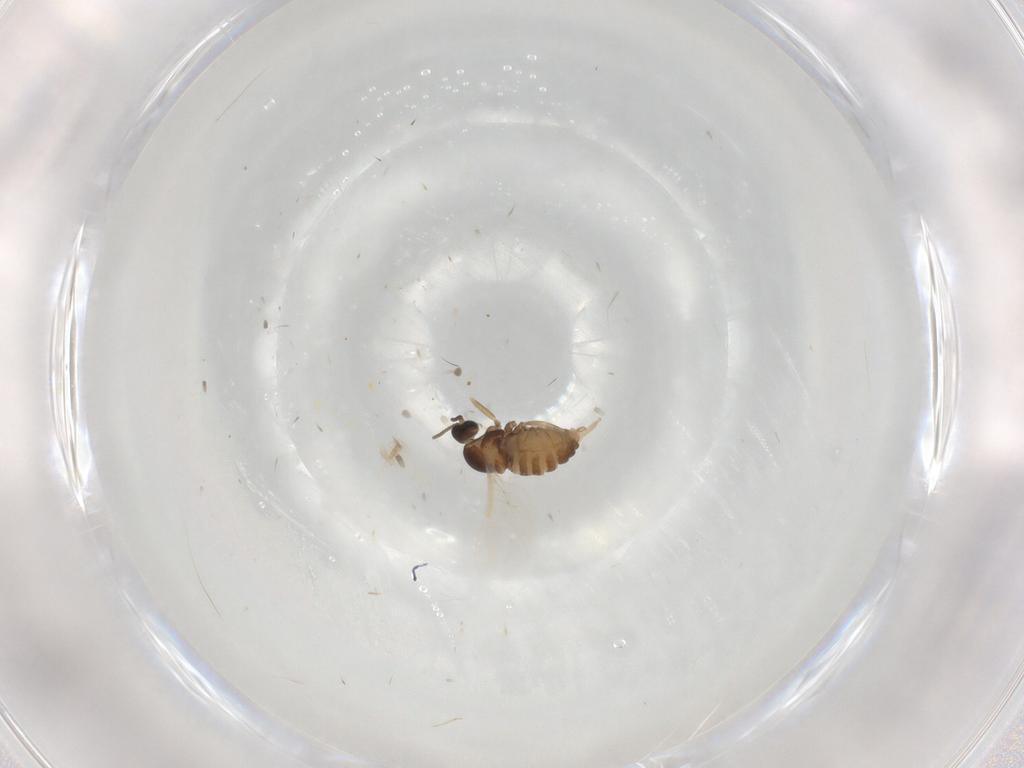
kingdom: Animalia
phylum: Arthropoda
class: Insecta
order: Diptera
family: Cecidomyiidae
